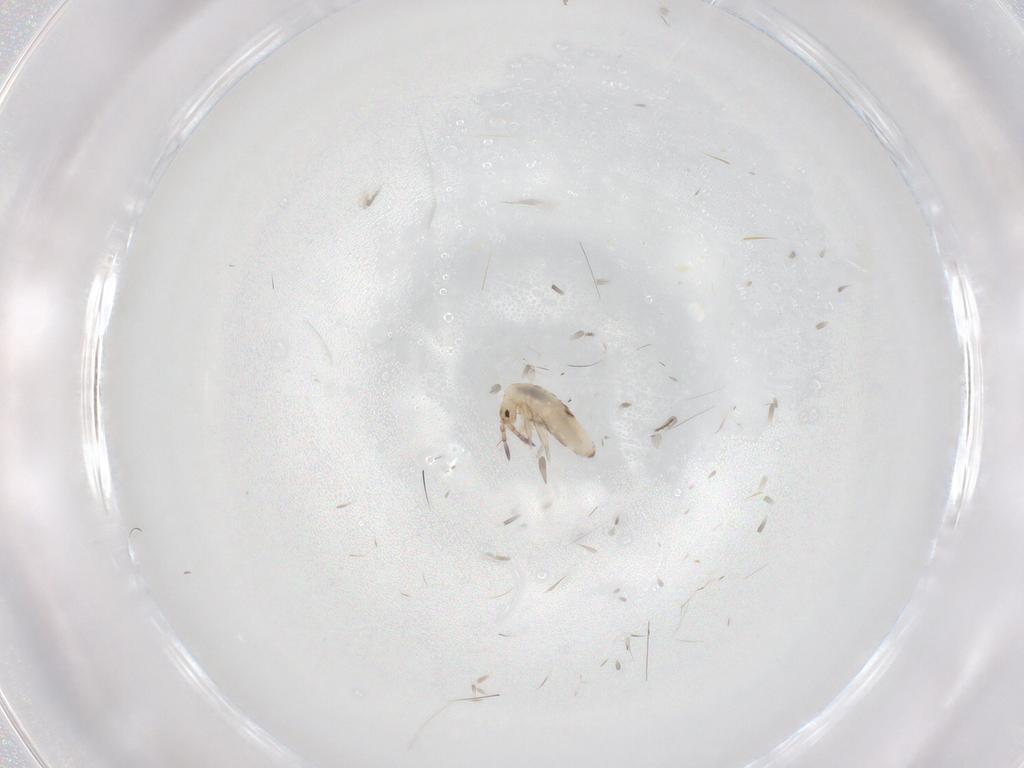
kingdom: Animalia
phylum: Arthropoda
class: Collembola
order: Entomobryomorpha
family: Entomobryidae
